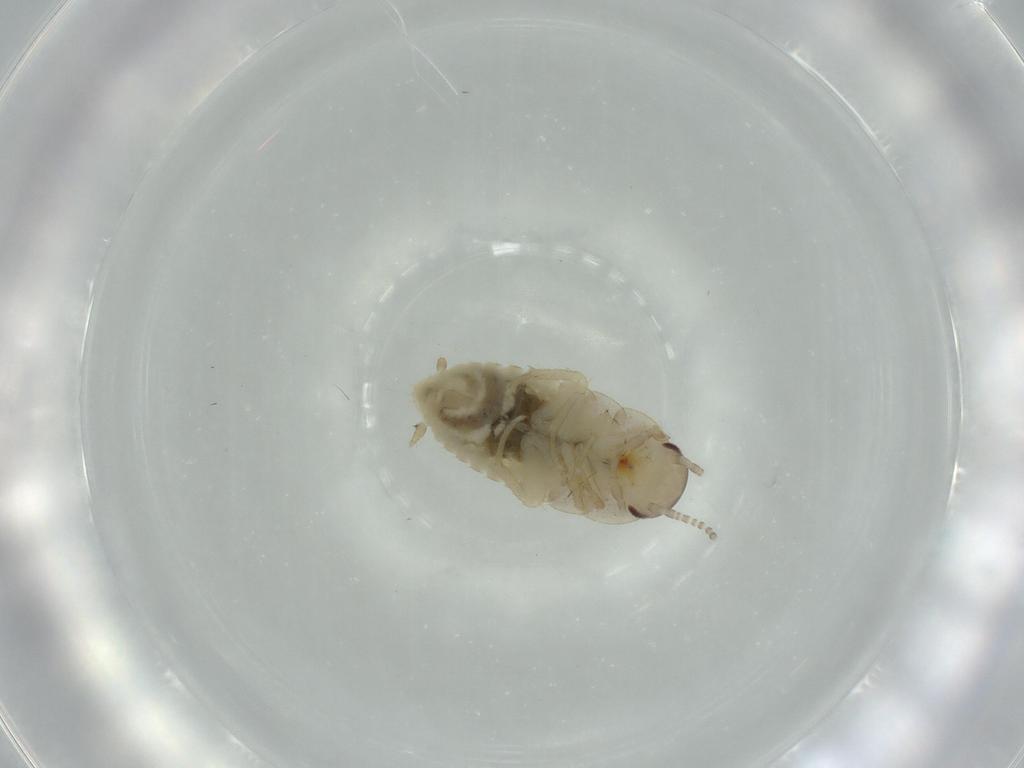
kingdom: Animalia
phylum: Arthropoda
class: Insecta
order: Blattodea
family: Ectobiidae
